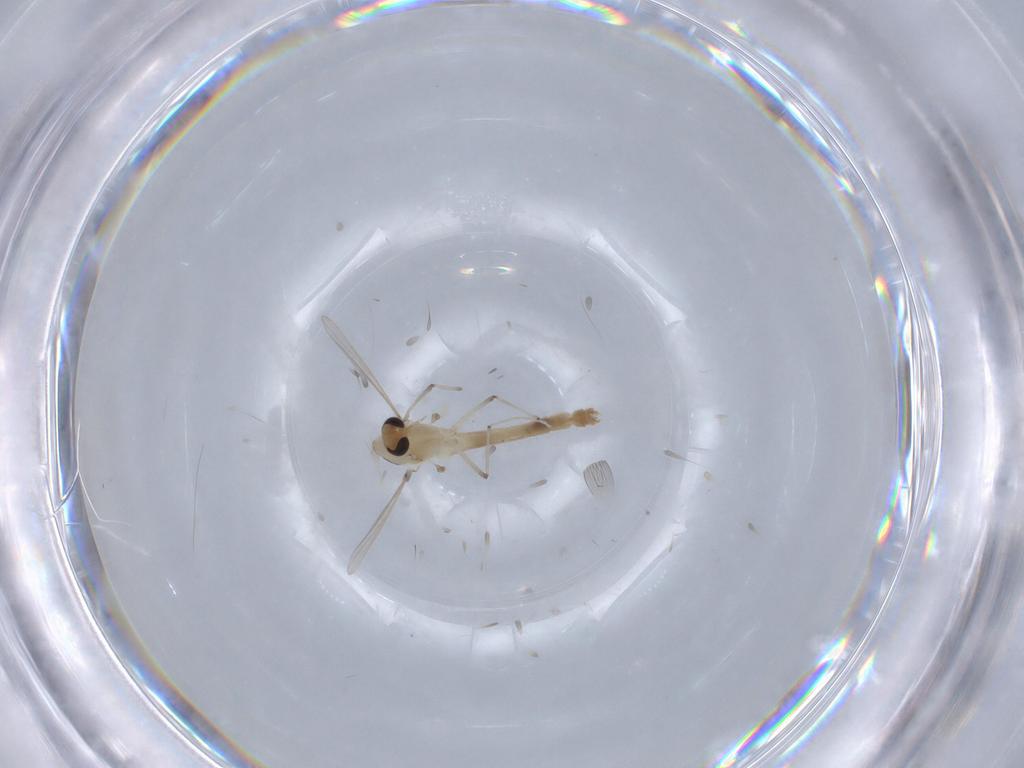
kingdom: Animalia
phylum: Arthropoda
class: Insecta
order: Diptera
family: Chironomidae
